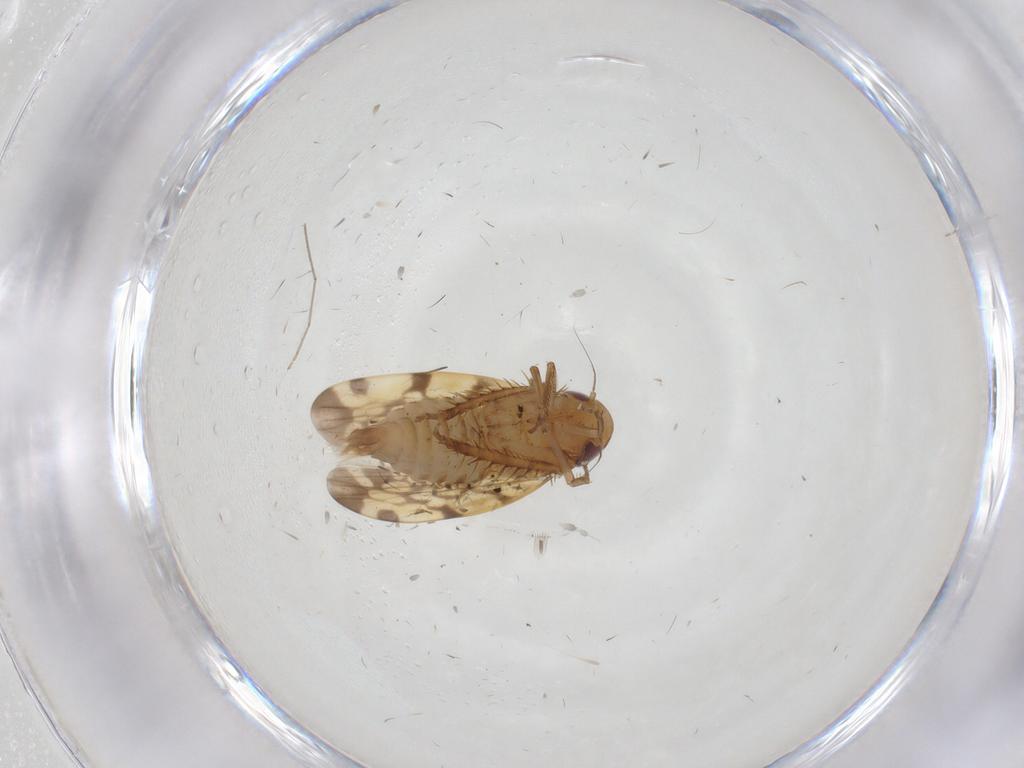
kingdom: Animalia
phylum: Arthropoda
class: Insecta
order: Hemiptera
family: Cicadellidae
